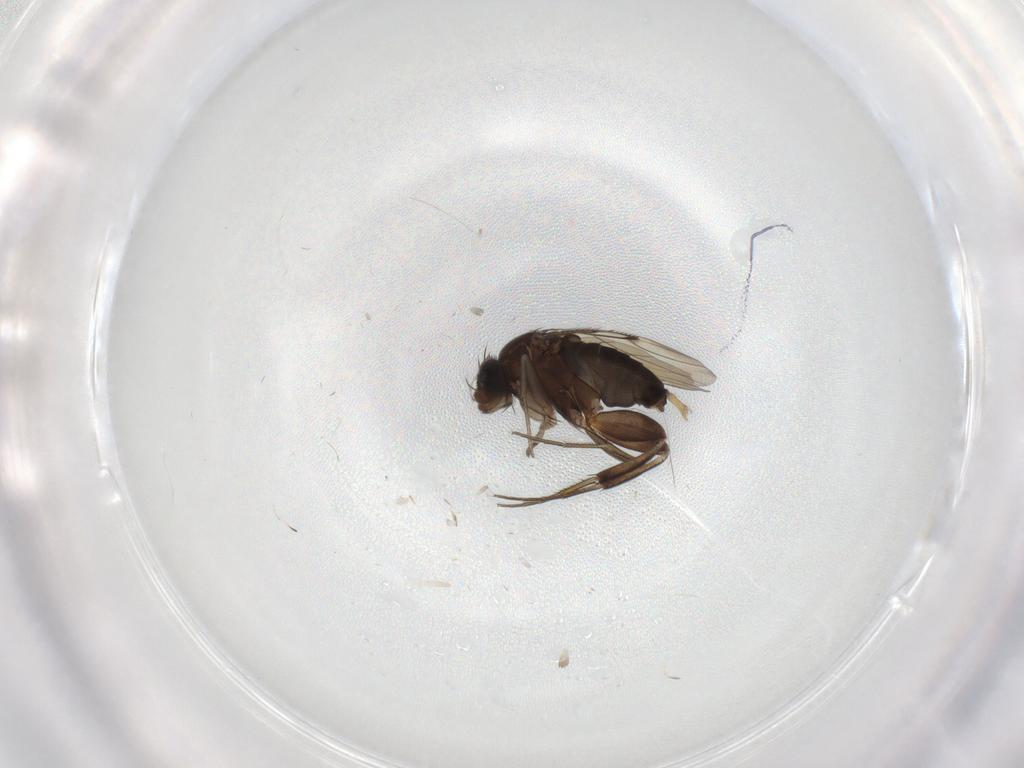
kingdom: Animalia
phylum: Arthropoda
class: Insecta
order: Diptera
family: Phoridae
